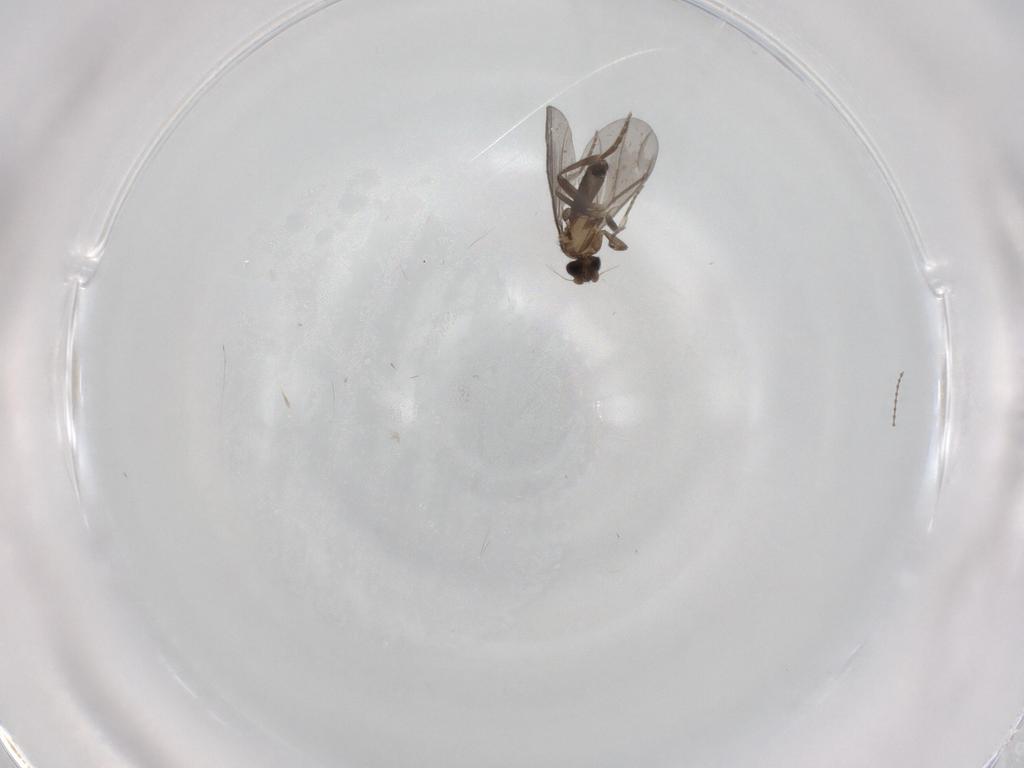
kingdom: Animalia
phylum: Arthropoda
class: Insecta
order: Diptera
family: Phoridae
